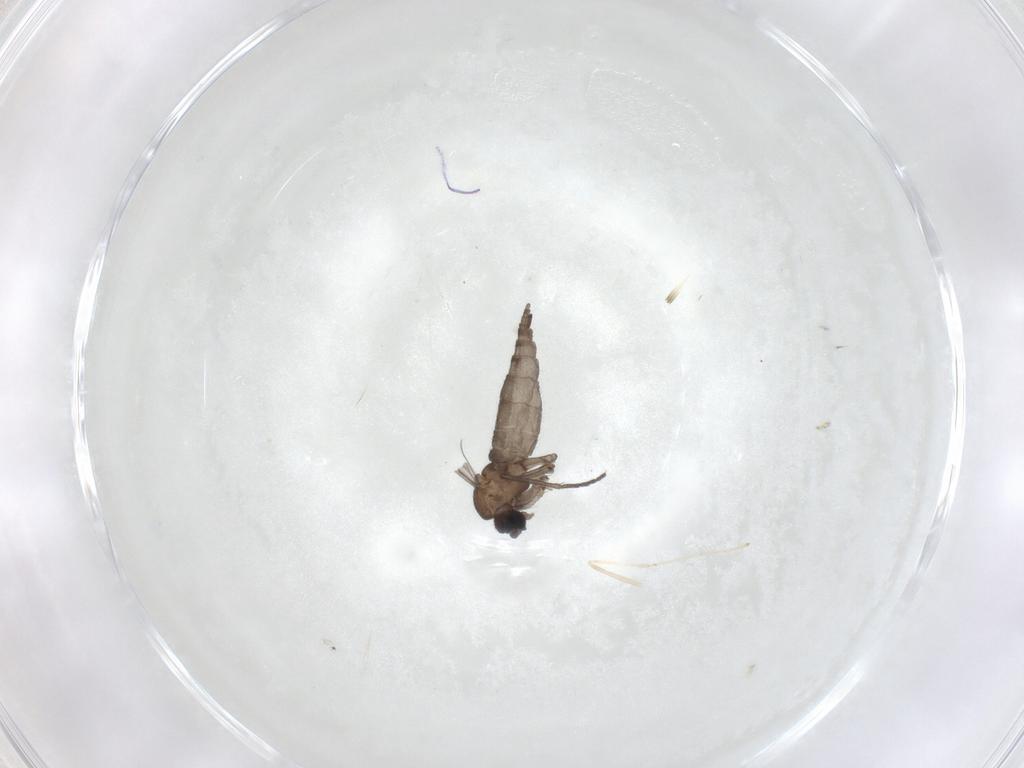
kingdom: Animalia
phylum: Arthropoda
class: Insecta
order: Diptera
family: Sciaridae
